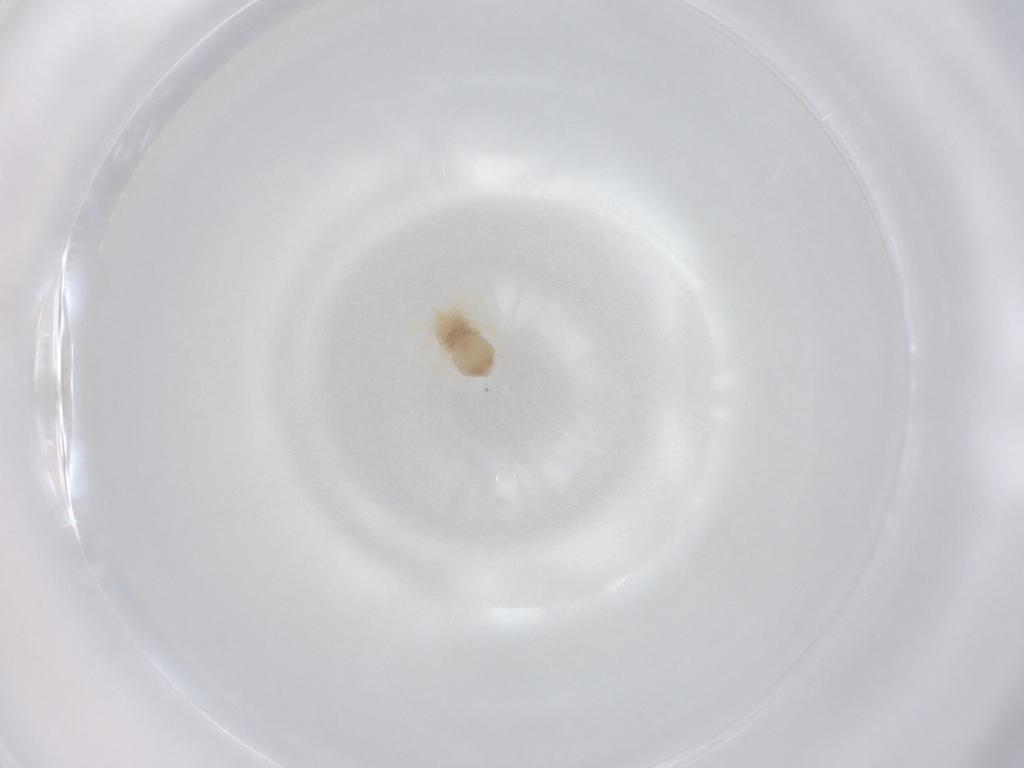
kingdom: Animalia
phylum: Arthropoda
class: Arachnida
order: Trombidiformes
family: Anystidae
